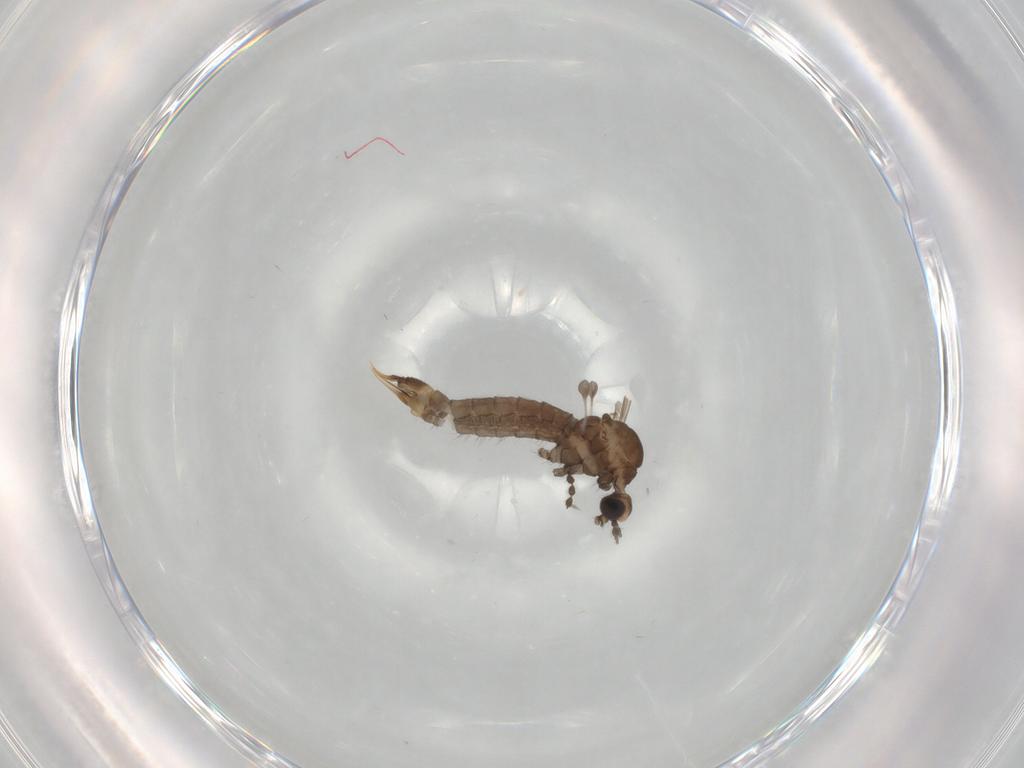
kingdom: Animalia
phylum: Arthropoda
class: Insecta
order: Diptera
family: Limoniidae
